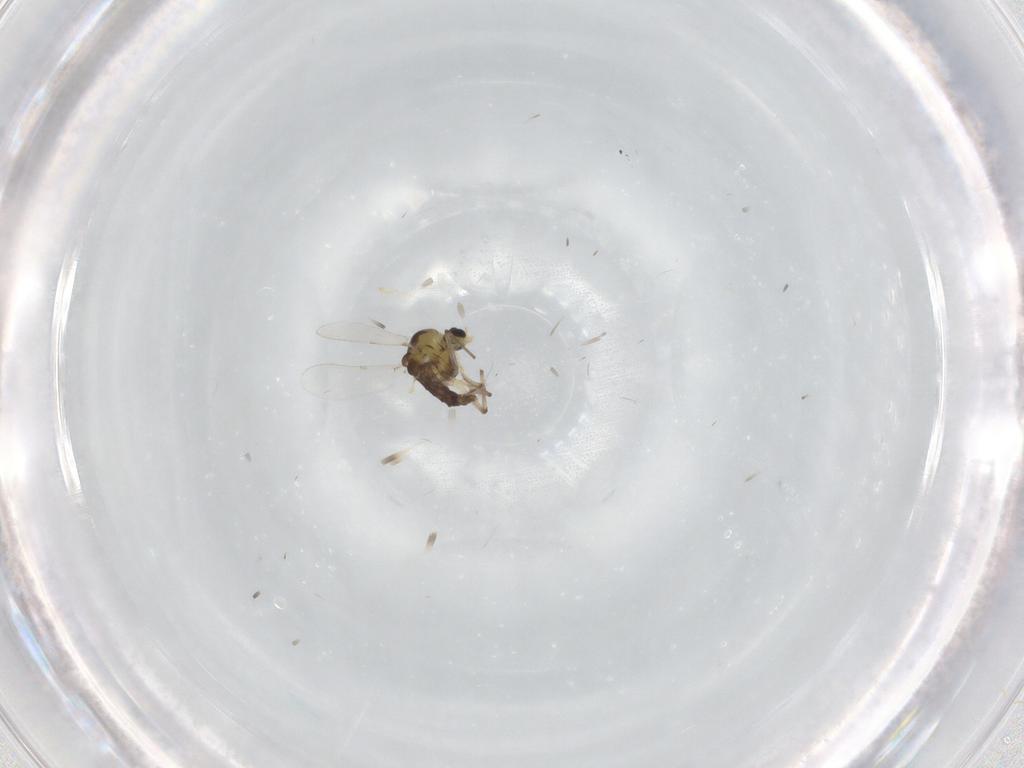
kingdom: Animalia
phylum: Arthropoda
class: Insecta
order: Diptera
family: Chironomidae
